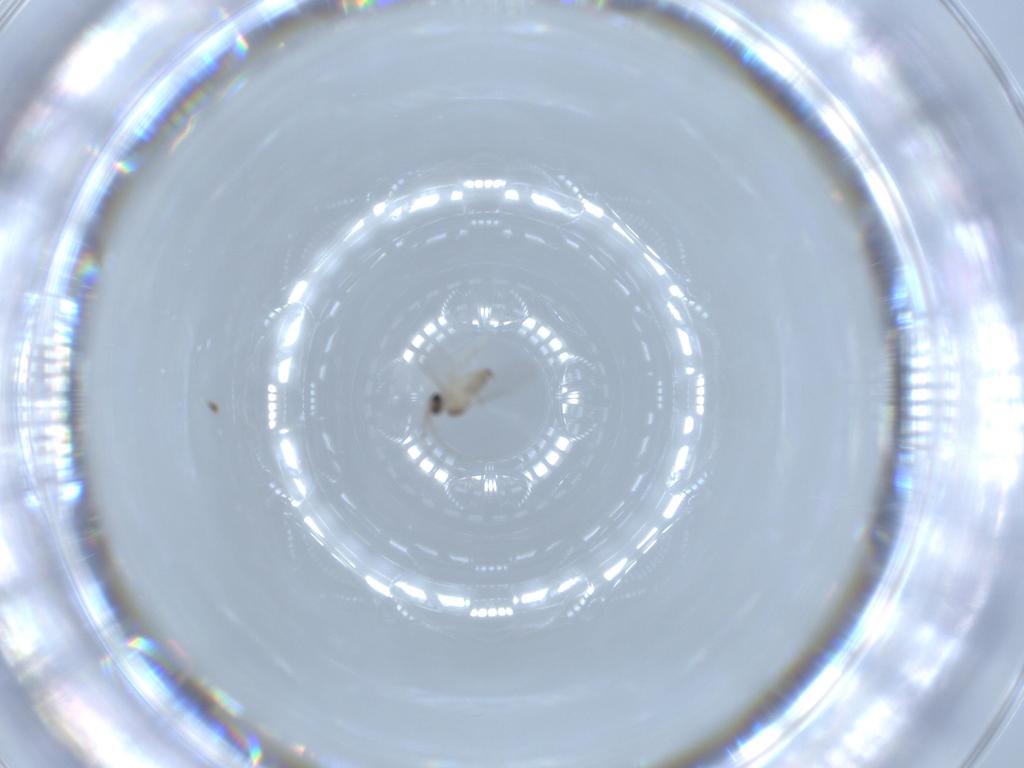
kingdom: Animalia
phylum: Arthropoda
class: Insecta
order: Diptera
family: Cecidomyiidae
